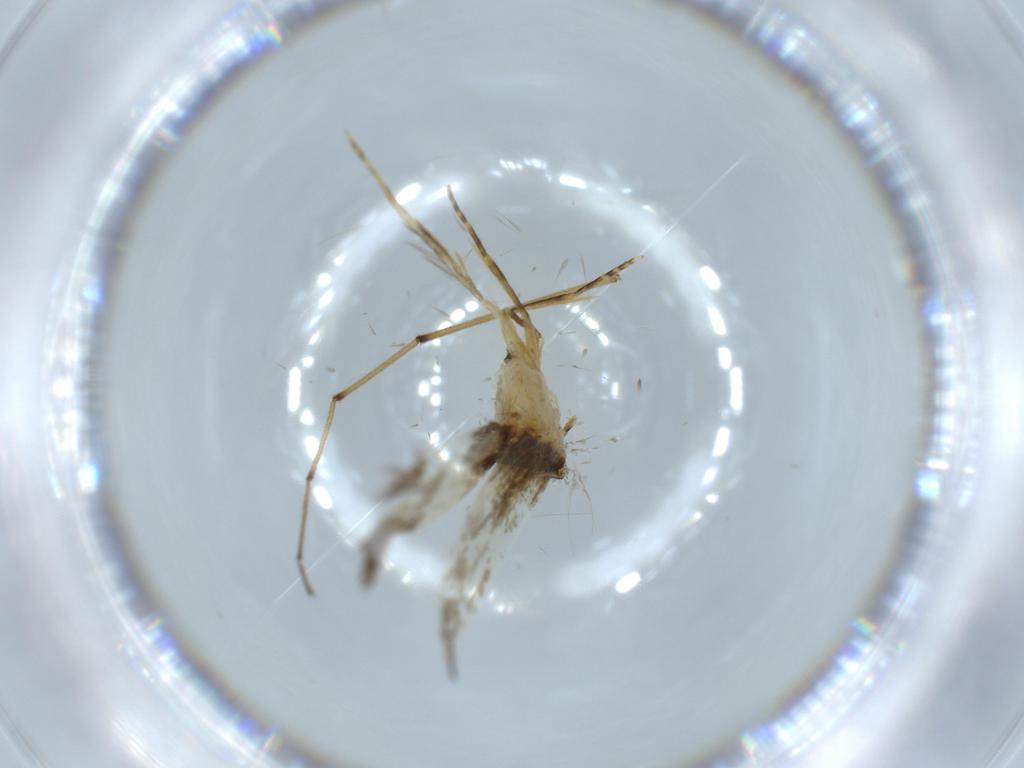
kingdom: Animalia
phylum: Arthropoda
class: Insecta
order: Lepidoptera
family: Tineidae
